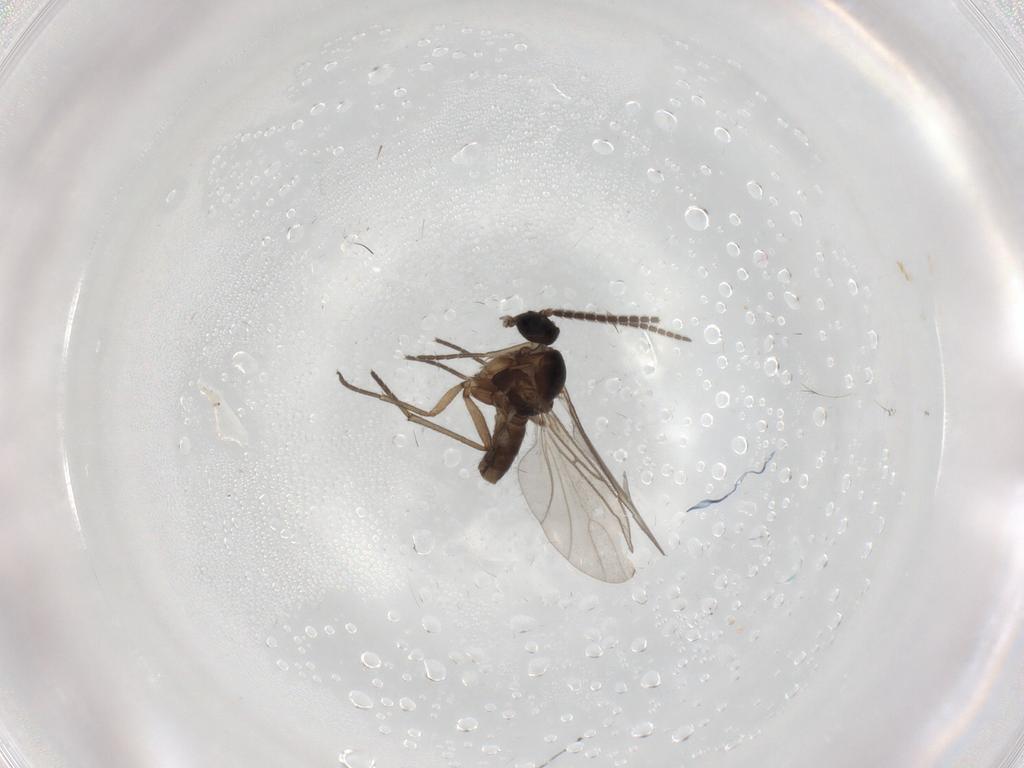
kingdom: Animalia
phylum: Arthropoda
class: Insecta
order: Diptera
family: Sciaridae
